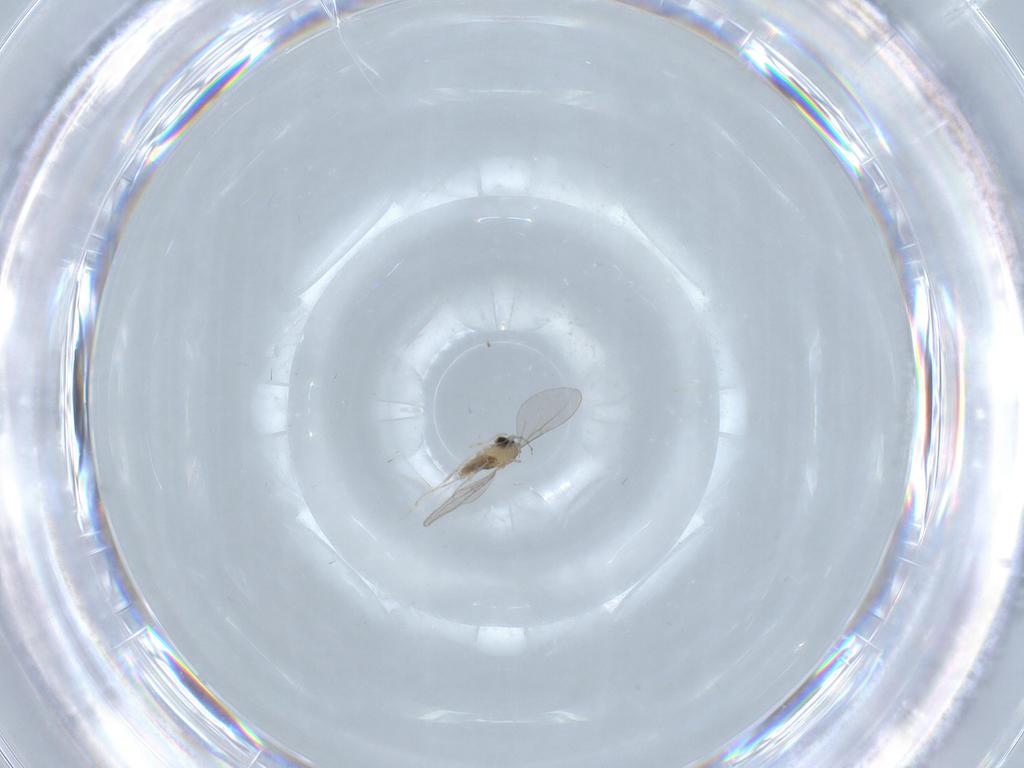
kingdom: Animalia
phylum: Arthropoda
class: Insecta
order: Diptera
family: Cecidomyiidae
